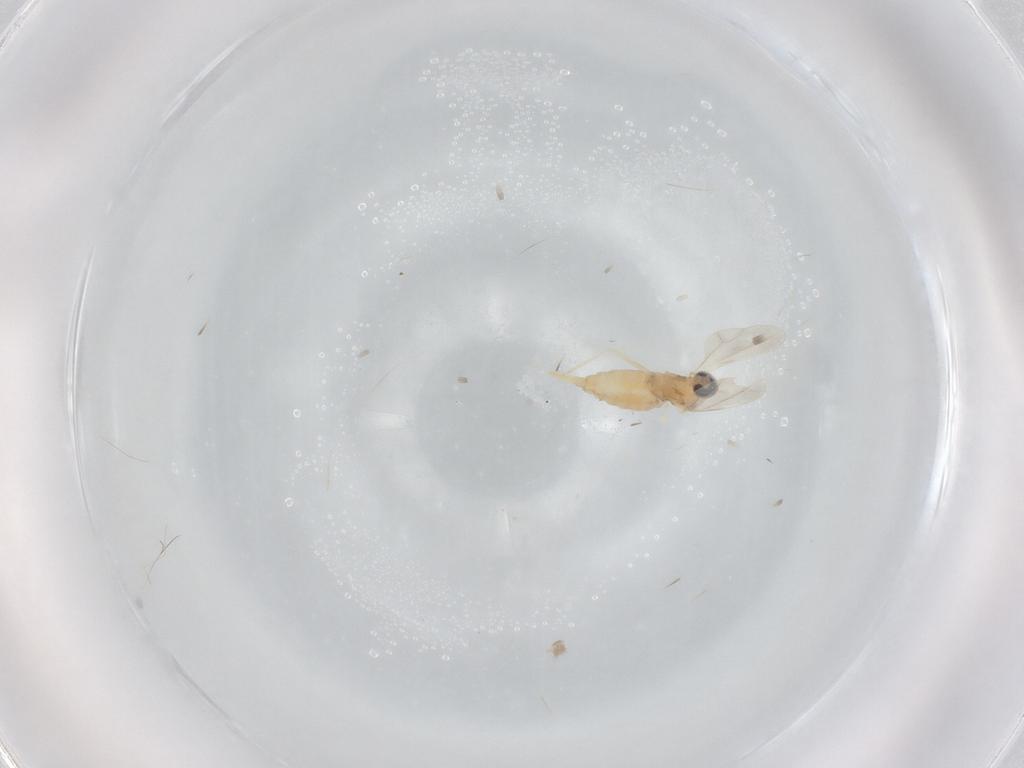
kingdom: Animalia
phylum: Arthropoda
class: Insecta
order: Diptera
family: Cecidomyiidae
